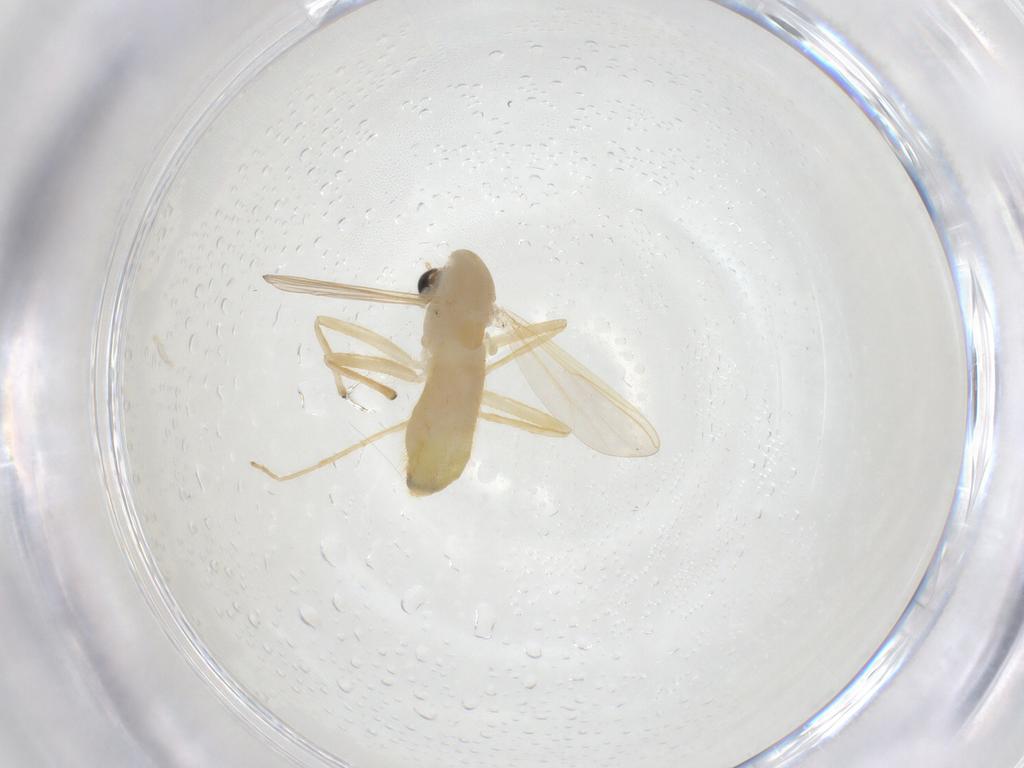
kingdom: Animalia
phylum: Arthropoda
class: Insecta
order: Diptera
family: Chironomidae
